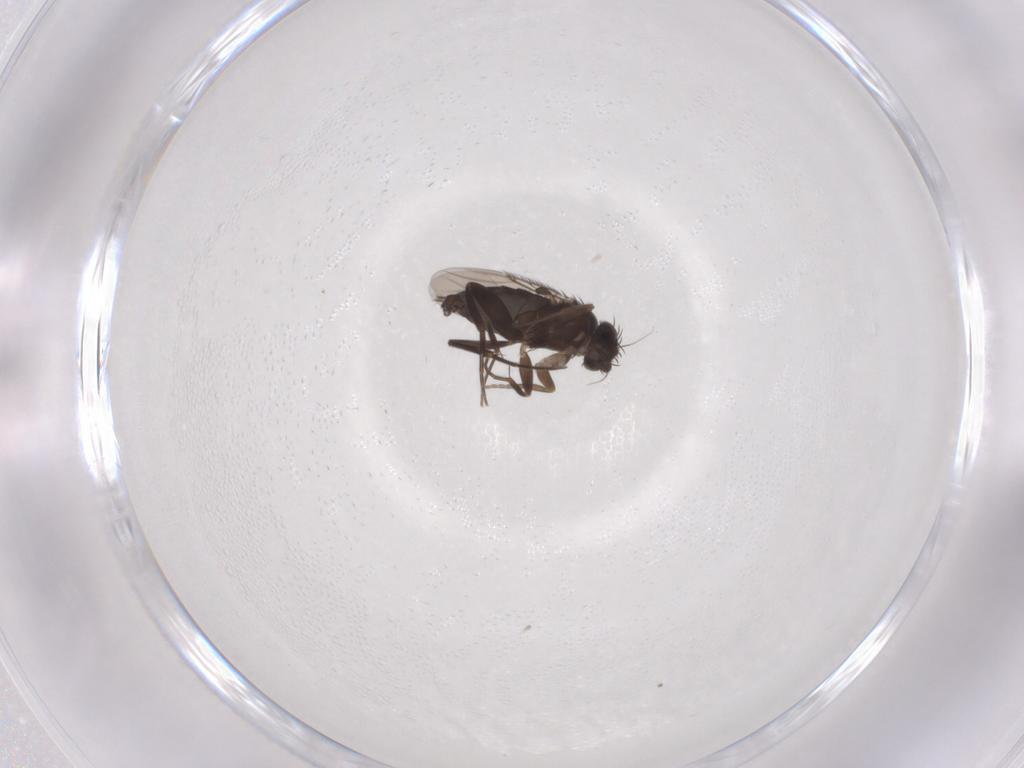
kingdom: Animalia
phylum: Arthropoda
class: Insecta
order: Diptera
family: Phoridae
